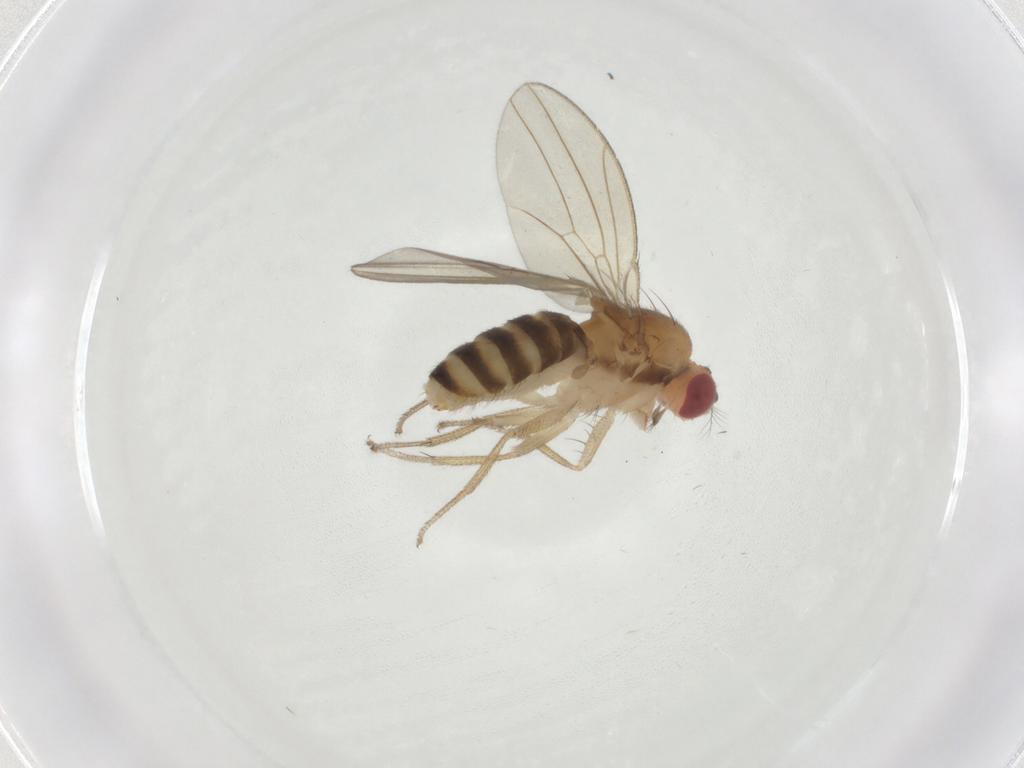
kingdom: Animalia
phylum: Arthropoda
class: Insecta
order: Diptera
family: Drosophilidae
